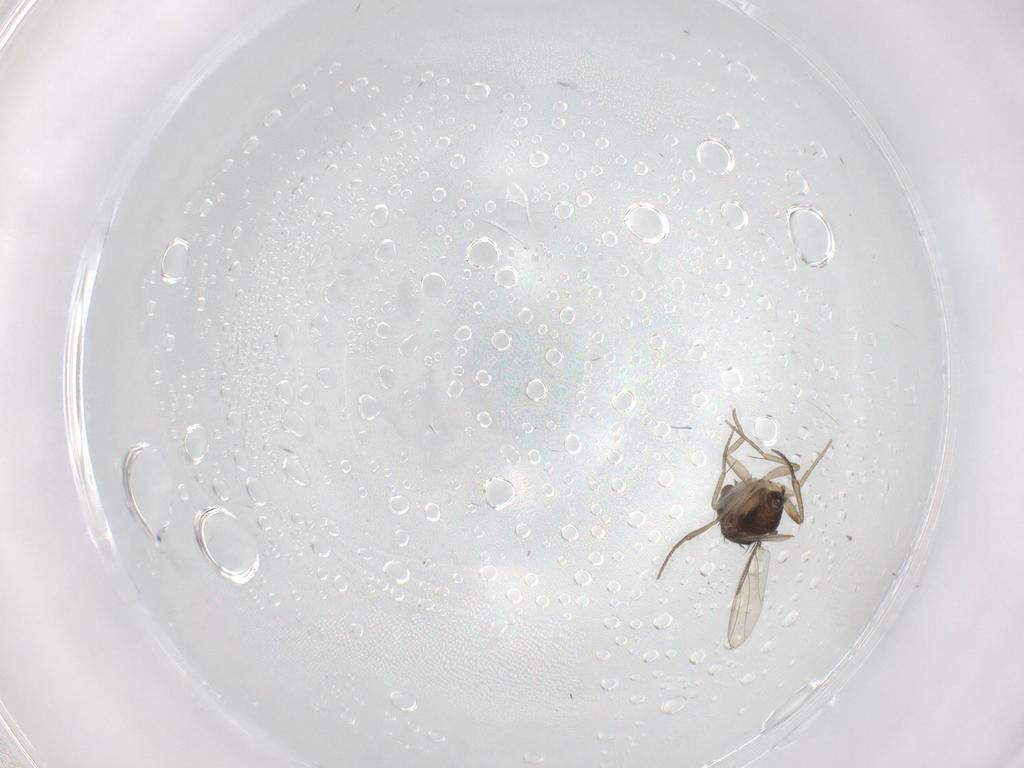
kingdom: Animalia
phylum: Arthropoda
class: Insecta
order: Diptera
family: Phoridae
